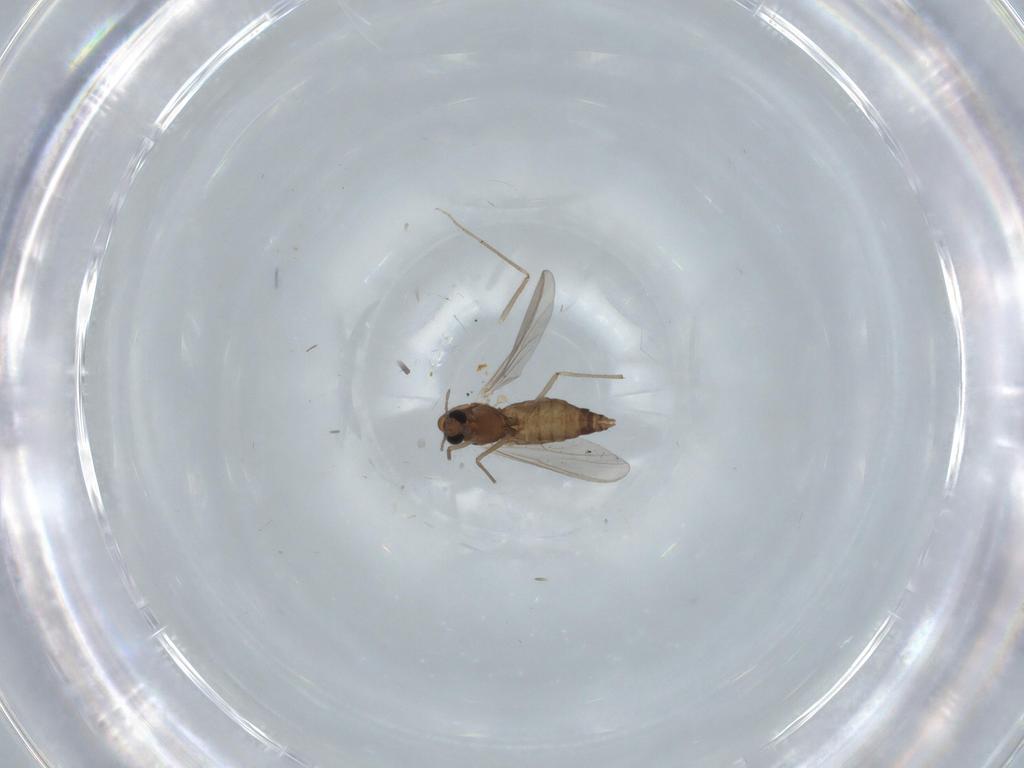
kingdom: Animalia
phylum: Arthropoda
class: Insecta
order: Diptera
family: Chironomidae
